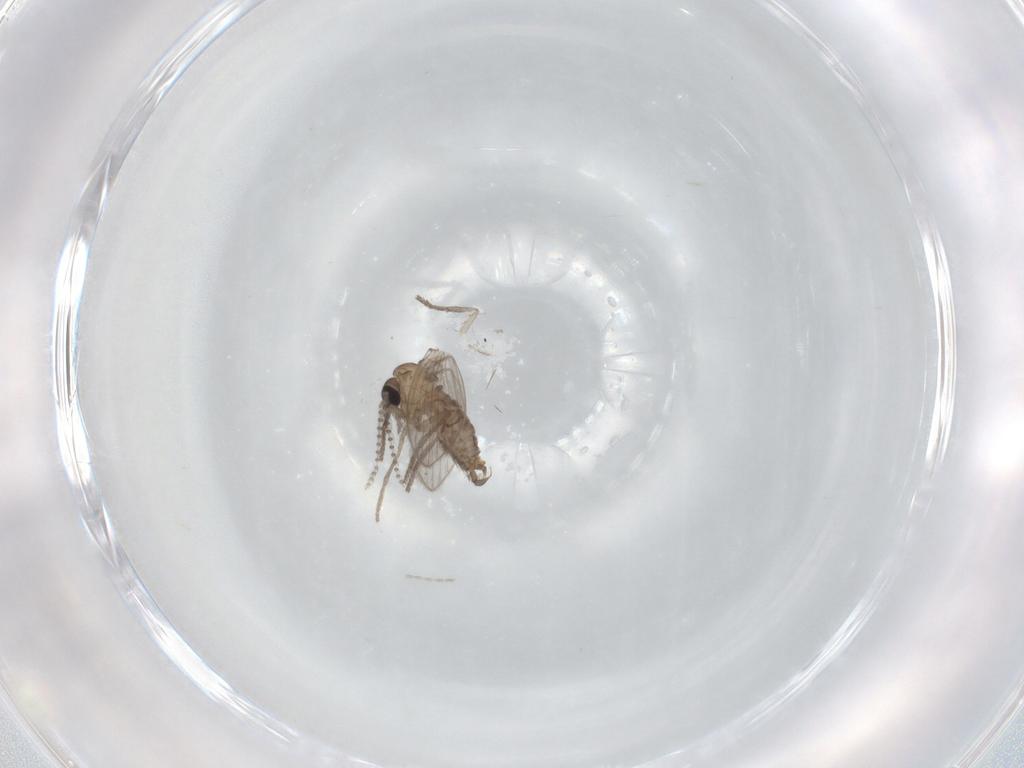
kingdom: Animalia
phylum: Arthropoda
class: Insecta
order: Diptera
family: Psychodidae
